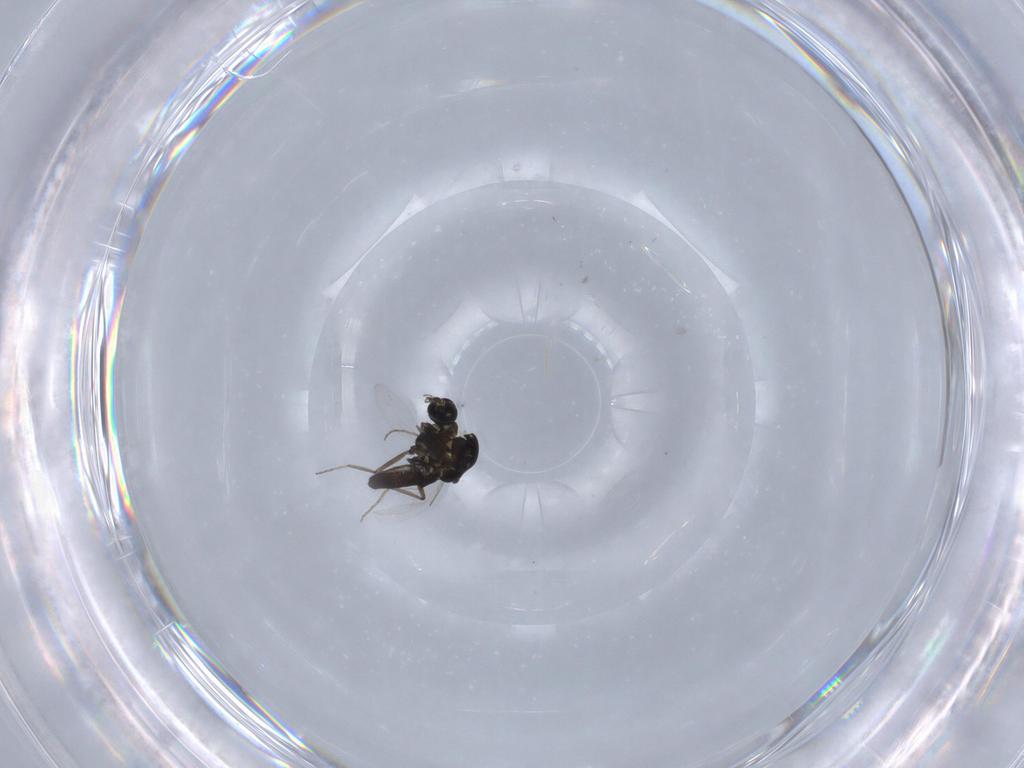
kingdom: Animalia
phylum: Arthropoda
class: Insecta
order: Diptera
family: Ceratopogonidae
